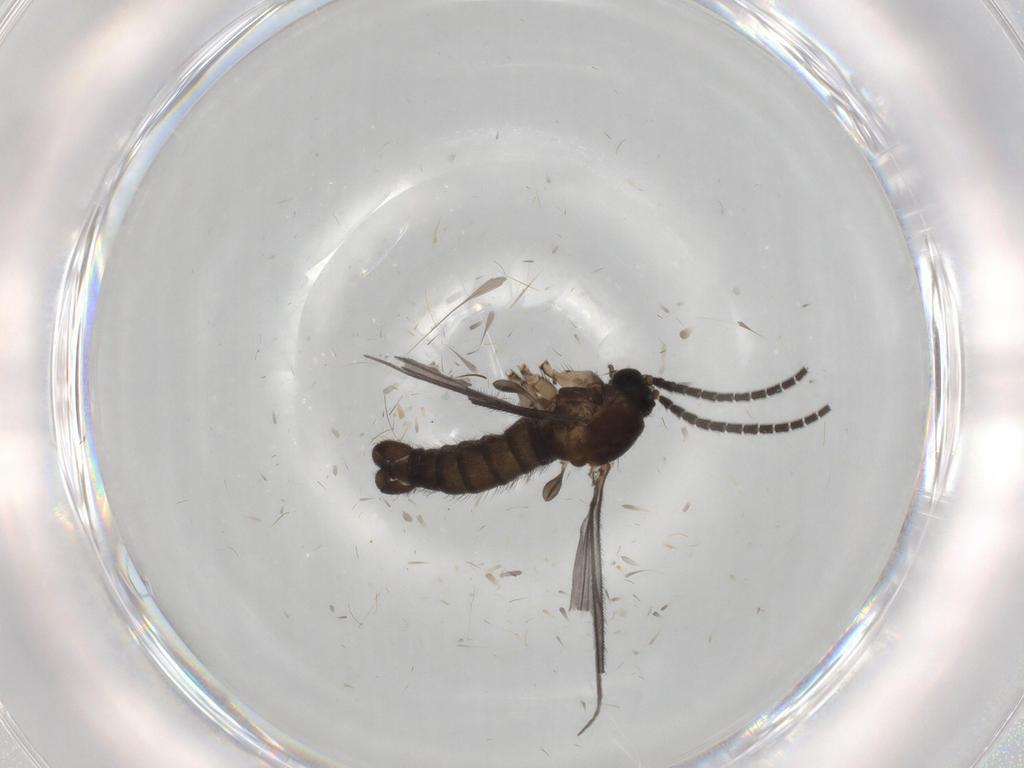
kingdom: Animalia
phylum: Arthropoda
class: Insecta
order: Diptera
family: Sciaridae
